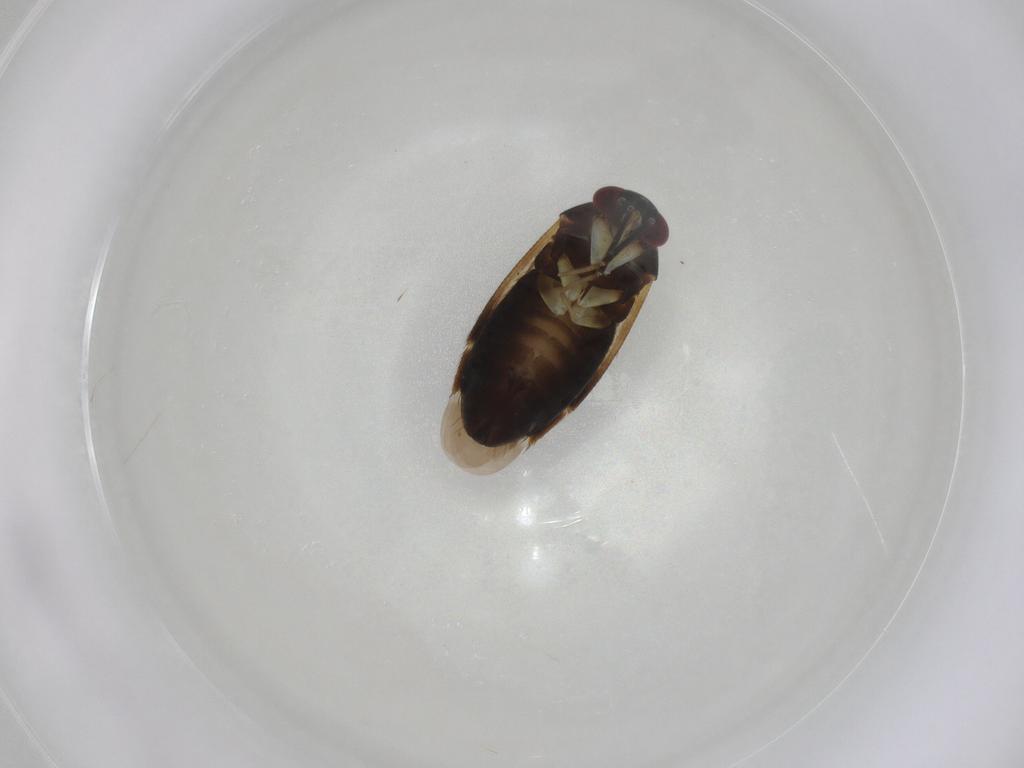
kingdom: Animalia
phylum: Arthropoda
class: Insecta
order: Hemiptera
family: Miridae
